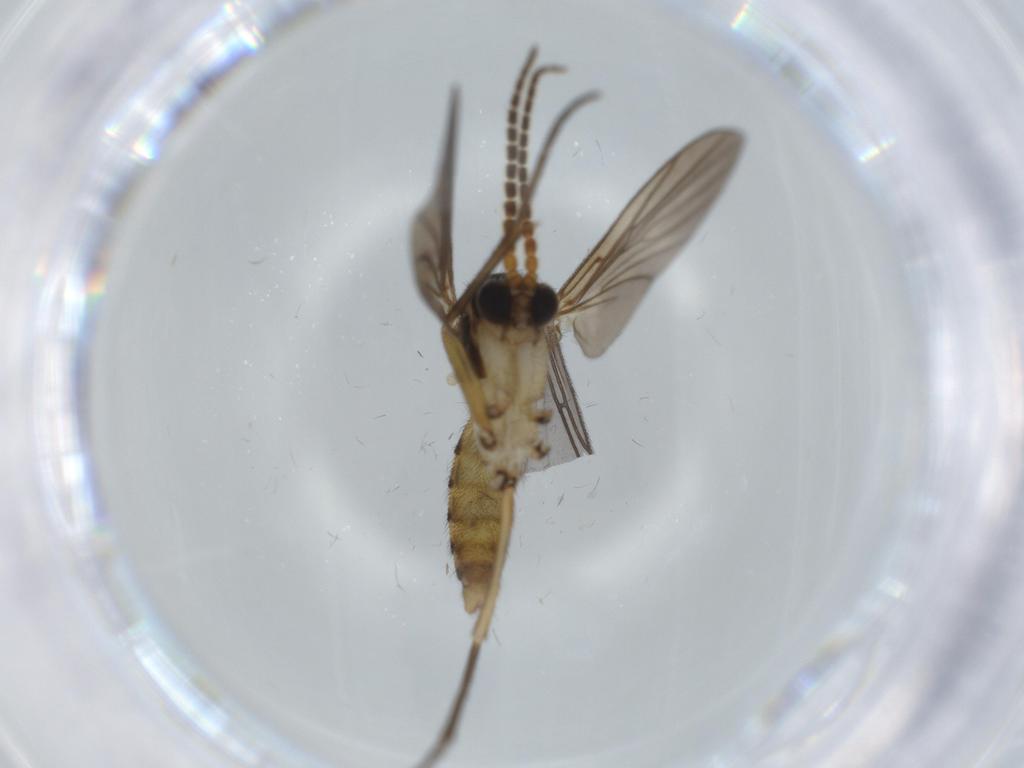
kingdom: Animalia
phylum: Arthropoda
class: Insecta
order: Diptera
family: Cecidomyiidae
